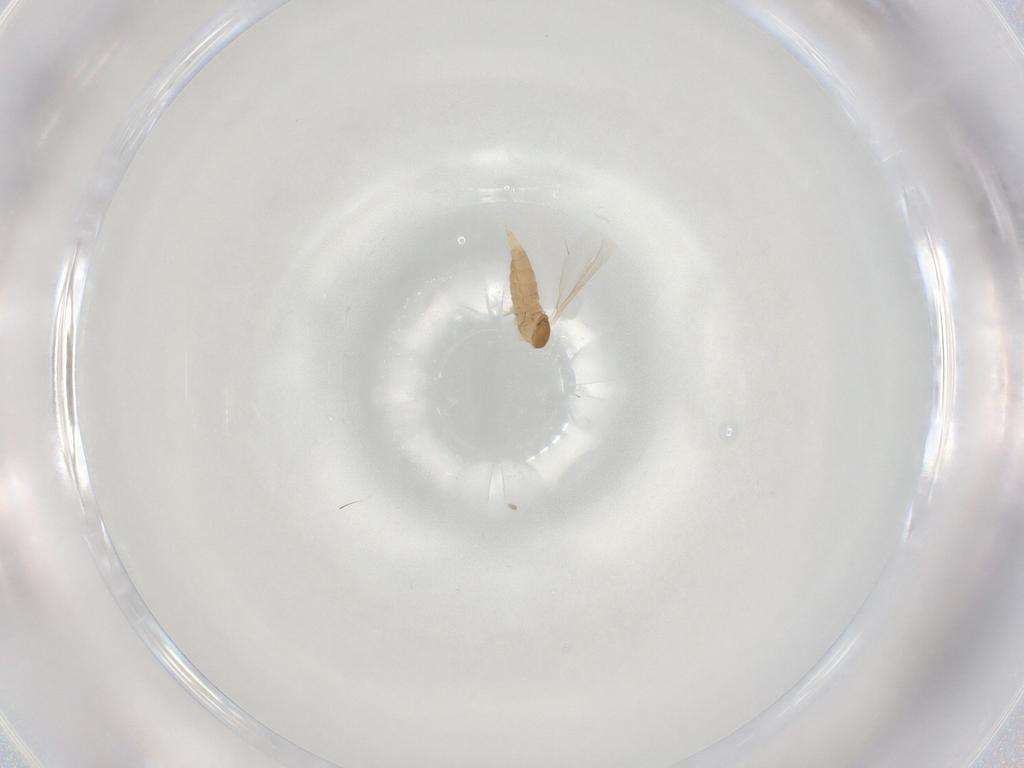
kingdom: Animalia
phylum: Arthropoda
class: Insecta
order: Diptera
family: Cecidomyiidae
